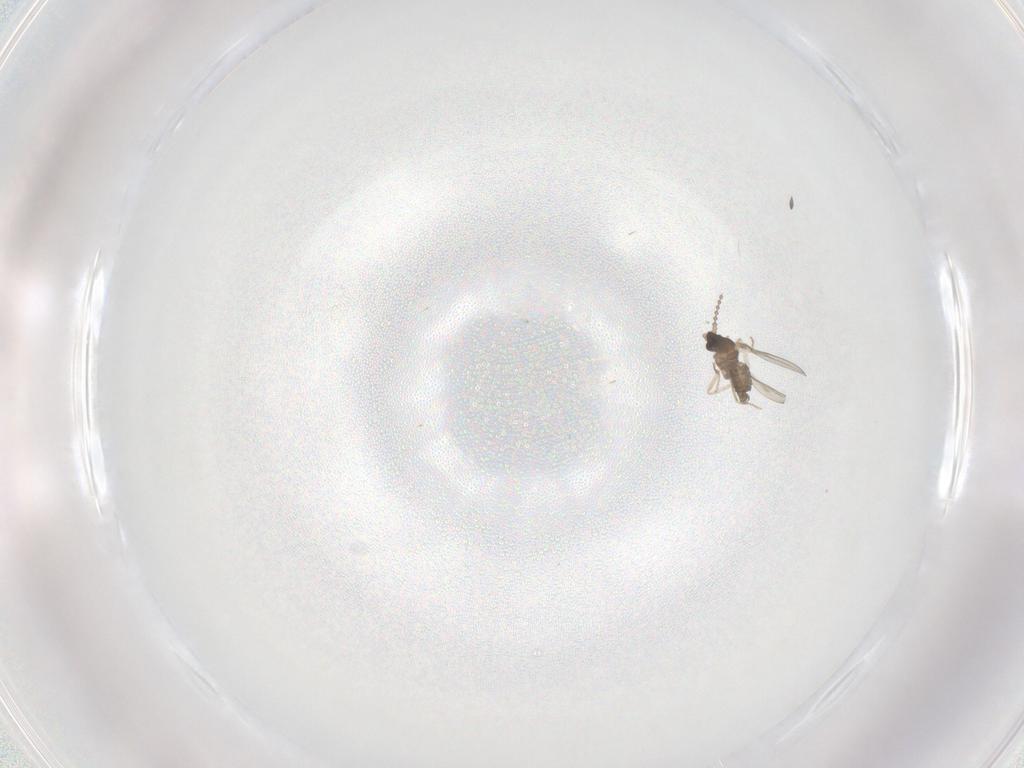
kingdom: Animalia
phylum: Arthropoda
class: Insecta
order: Diptera
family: Cecidomyiidae
